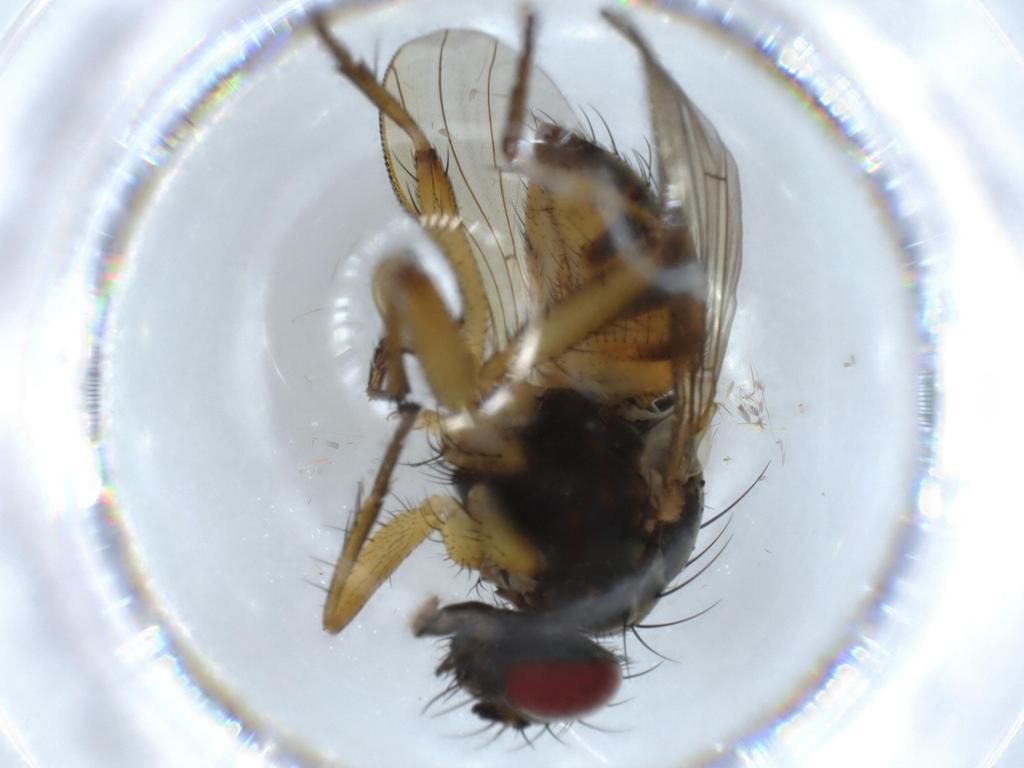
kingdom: Animalia
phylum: Arthropoda
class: Insecta
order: Diptera
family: Muscidae
